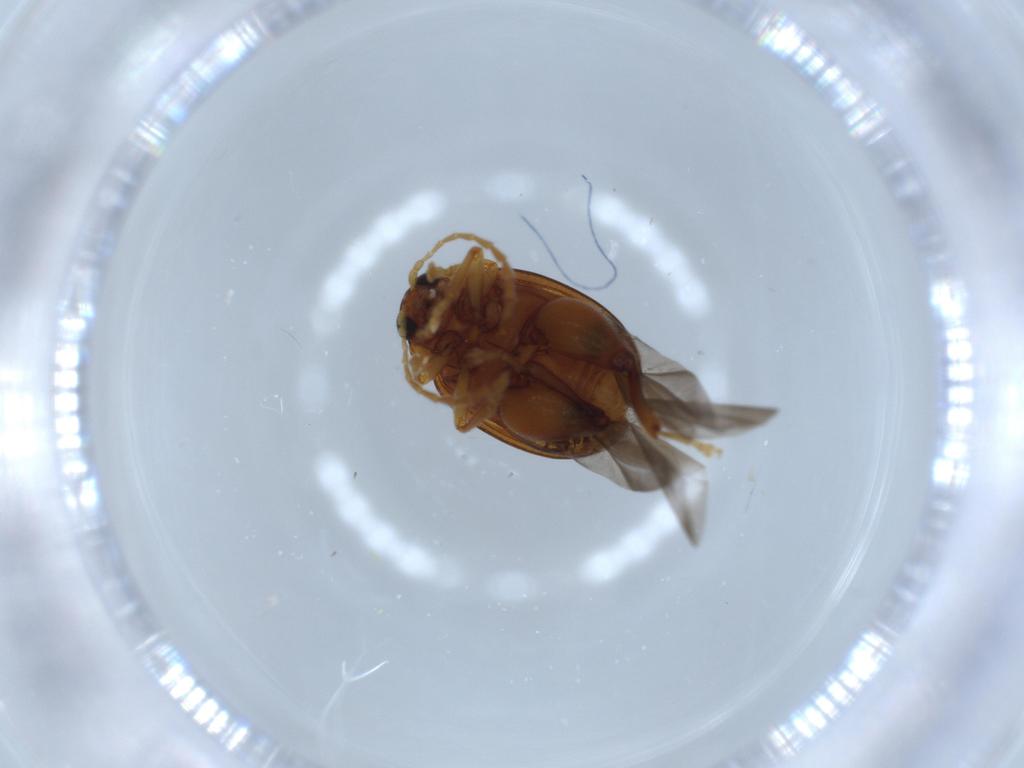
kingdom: Animalia
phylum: Arthropoda
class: Insecta
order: Coleoptera
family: Chrysomelidae
